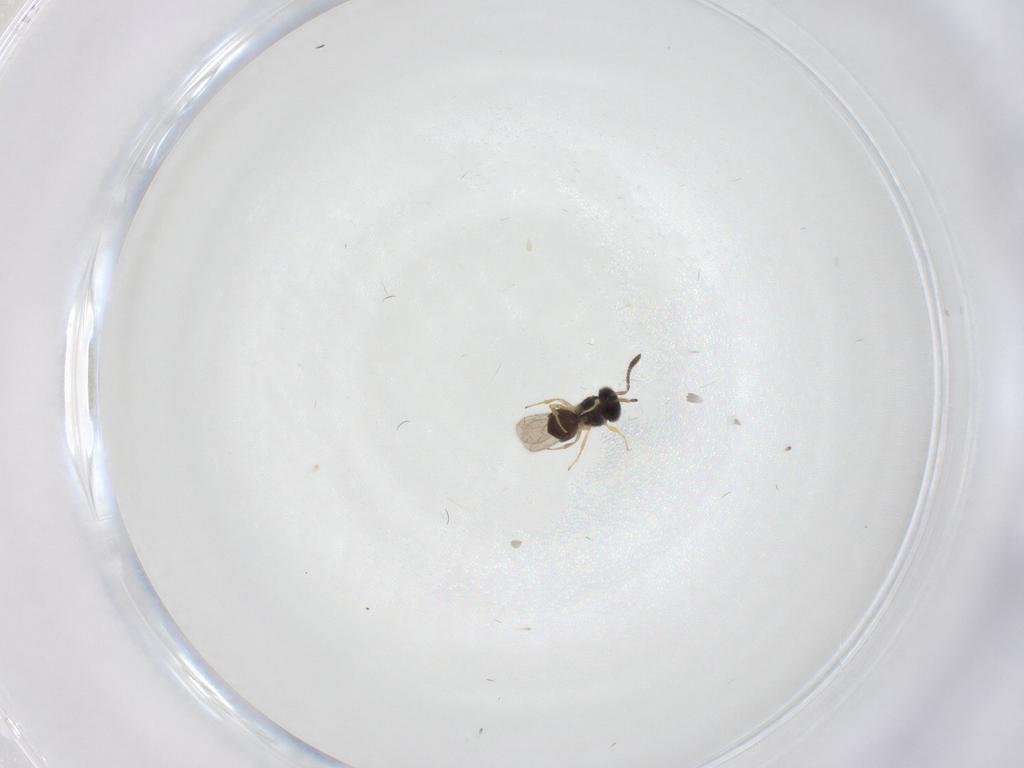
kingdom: Animalia
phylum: Arthropoda
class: Insecta
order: Hymenoptera
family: Scelionidae
